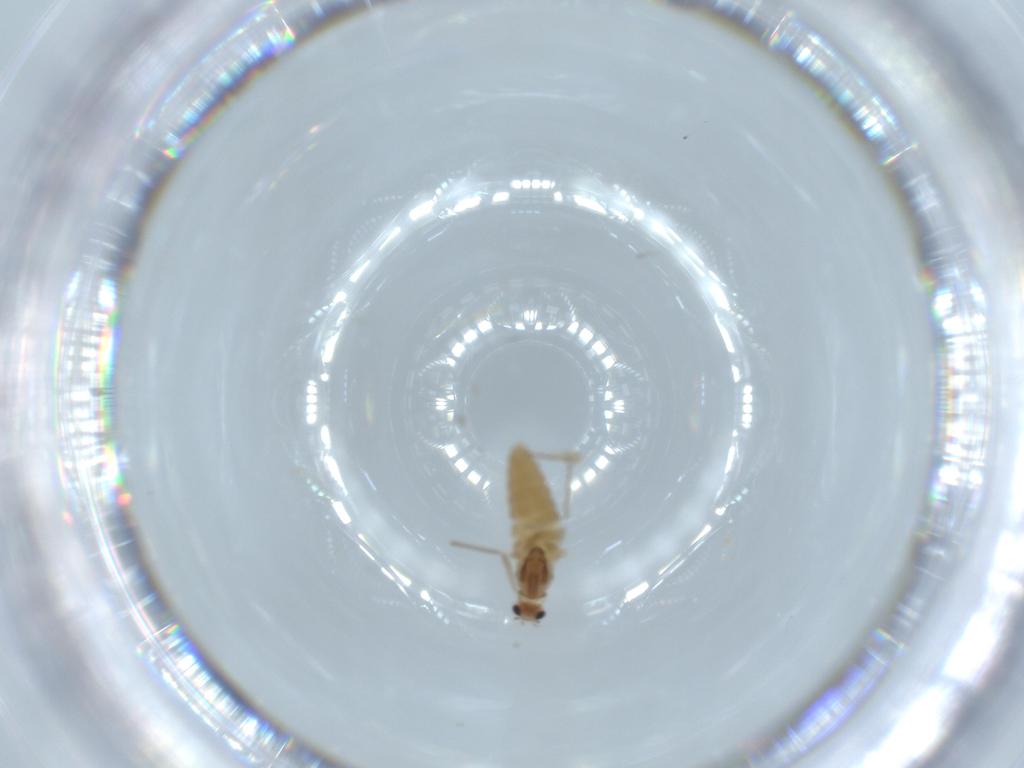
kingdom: Animalia
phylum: Arthropoda
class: Insecta
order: Diptera
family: Chironomidae
